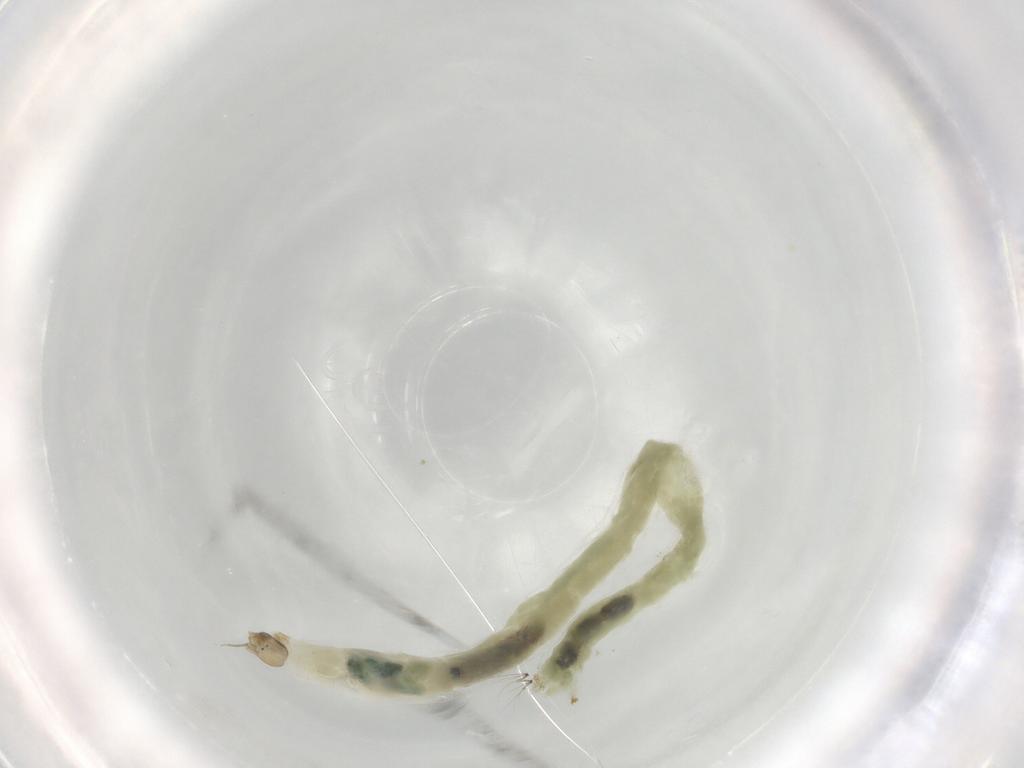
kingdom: Animalia
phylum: Arthropoda
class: Insecta
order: Diptera
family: Chironomidae
